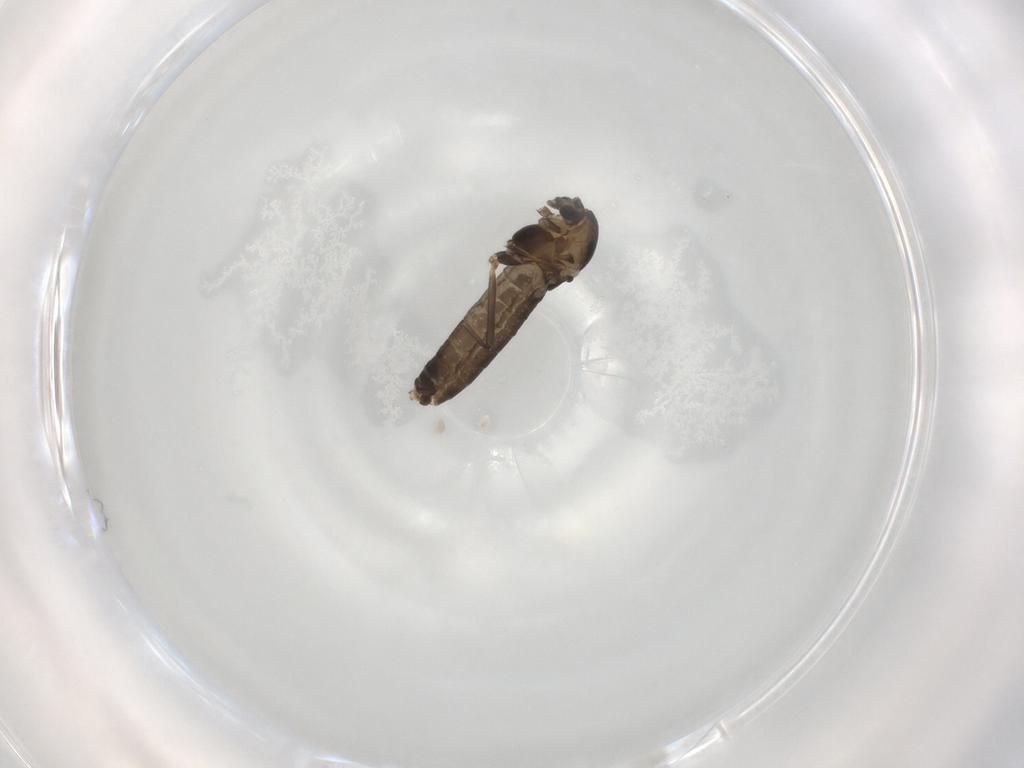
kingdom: Animalia
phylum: Arthropoda
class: Insecta
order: Diptera
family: Chironomidae
